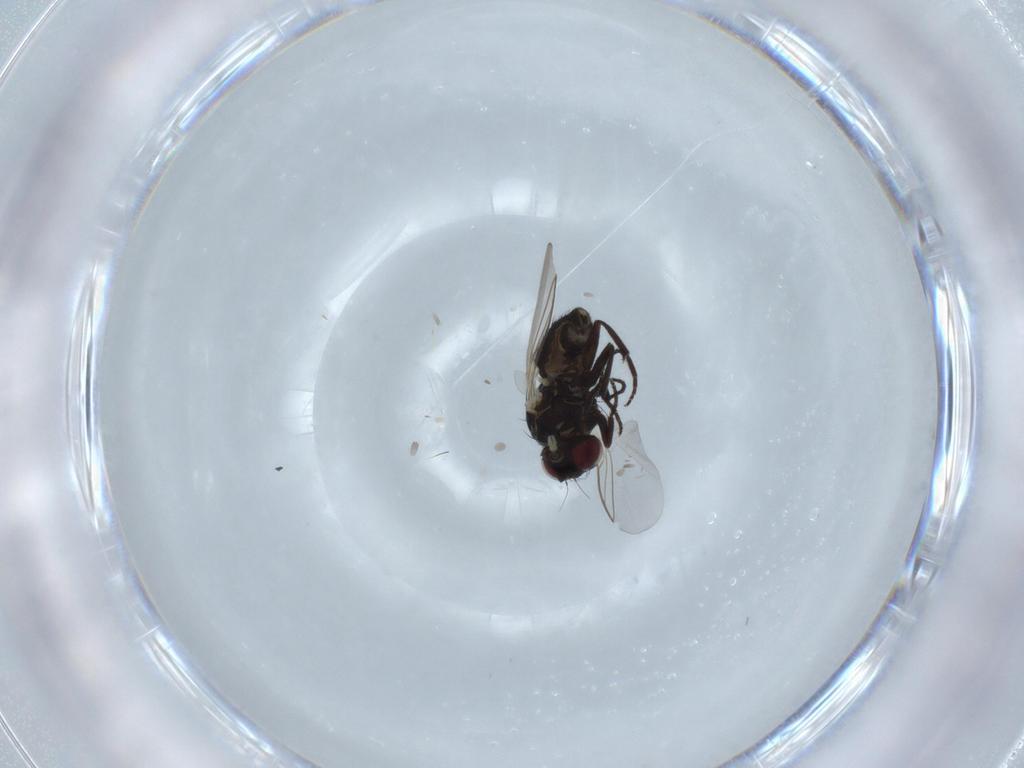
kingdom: Animalia
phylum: Arthropoda
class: Insecta
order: Diptera
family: Agromyzidae
